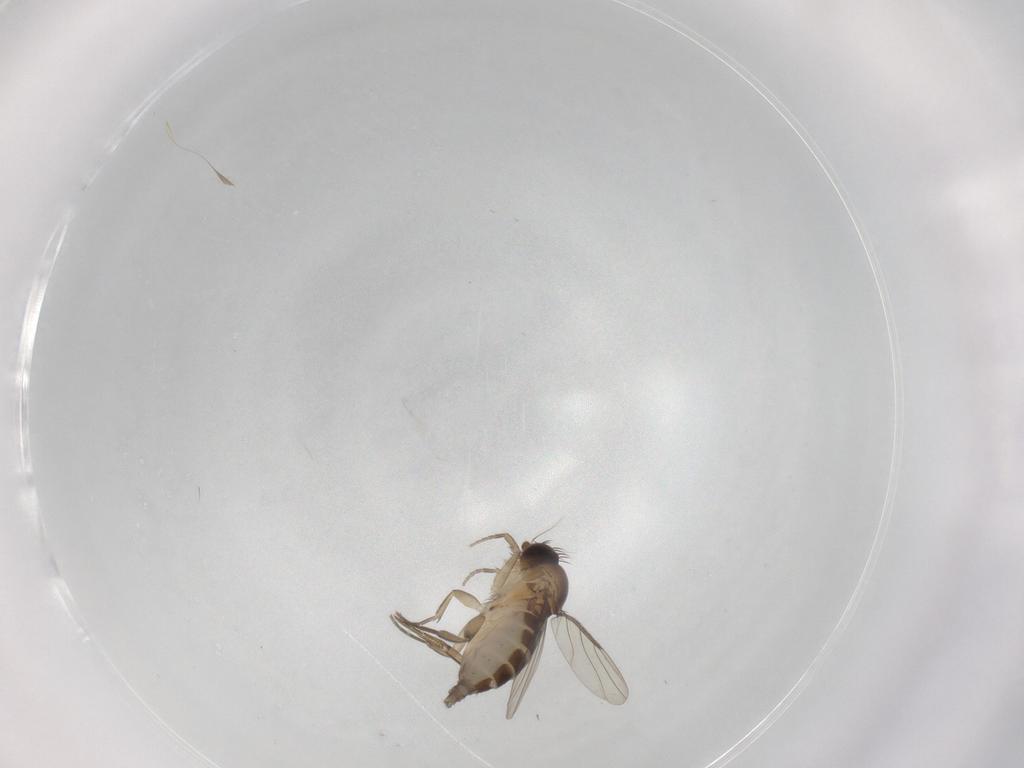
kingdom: Animalia
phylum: Arthropoda
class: Insecta
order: Diptera
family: Phoridae
